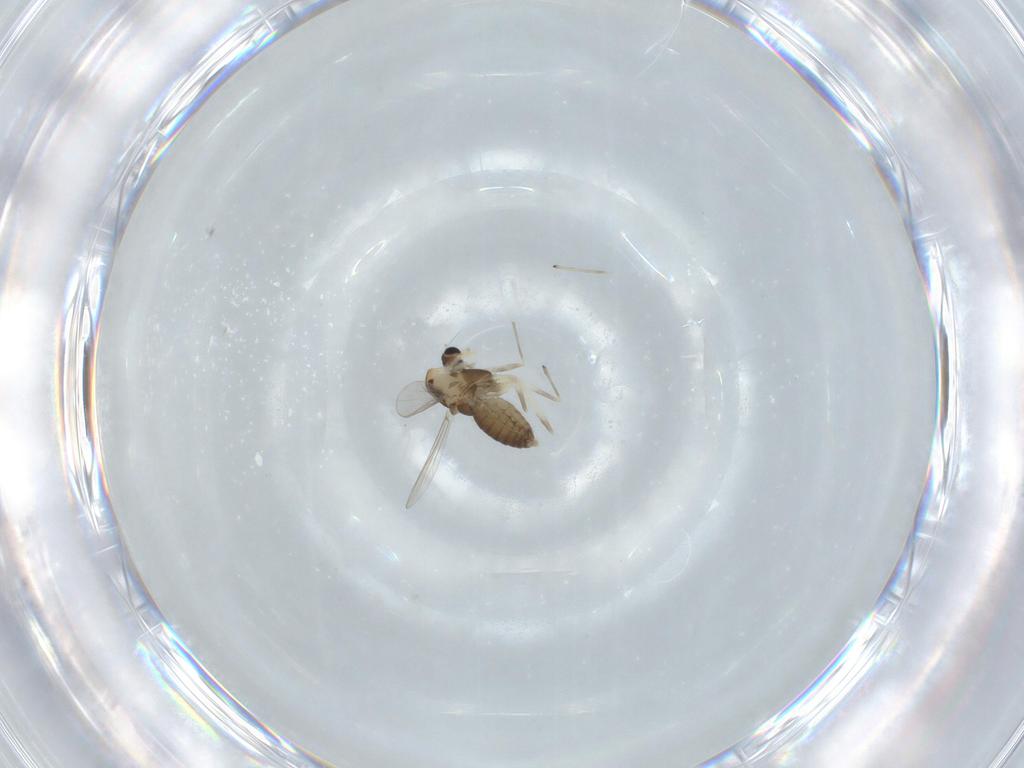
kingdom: Animalia
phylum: Arthropoda
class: Insecta
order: Diptera
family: Chironomidae
